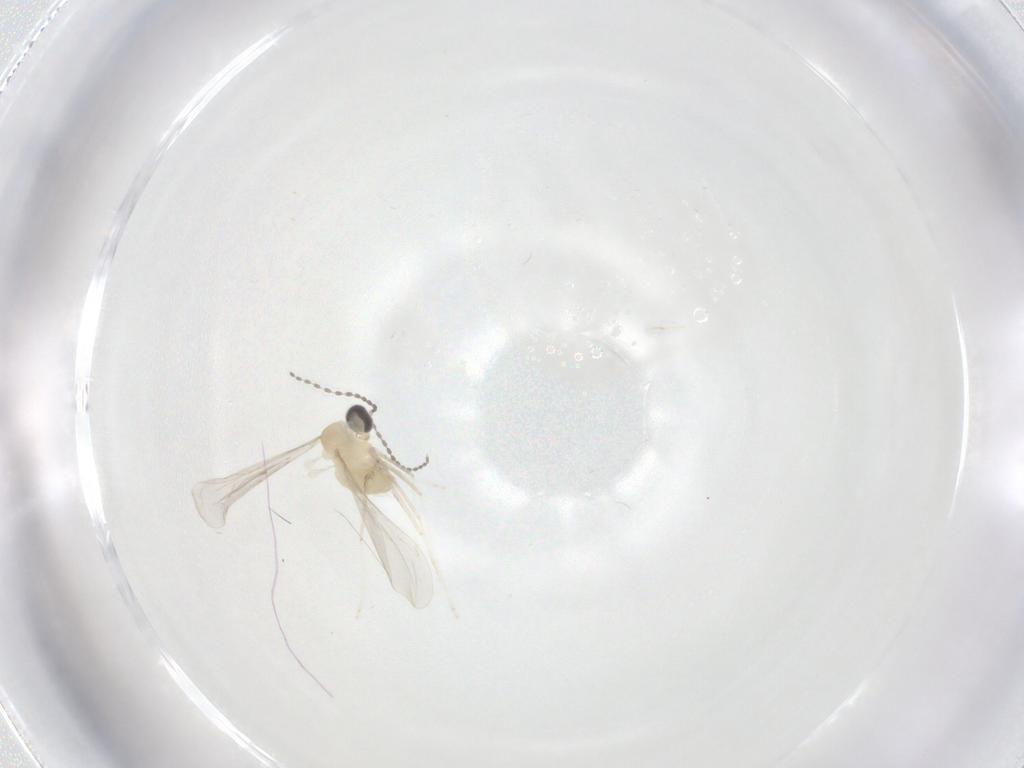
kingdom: Animalia
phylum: Arthropoda
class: Insecta
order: Diptera
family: Cecidomyiidae
